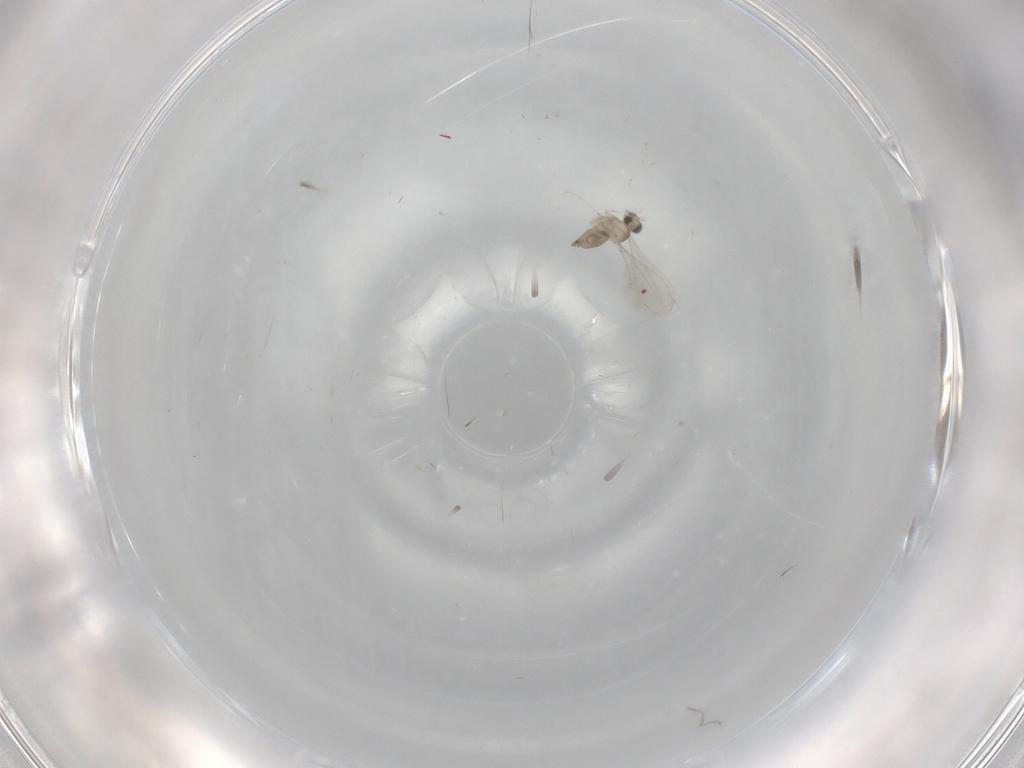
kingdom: Animalia
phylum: Arthropoda
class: Insecta
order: Diptera
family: Cecidomyiidae
